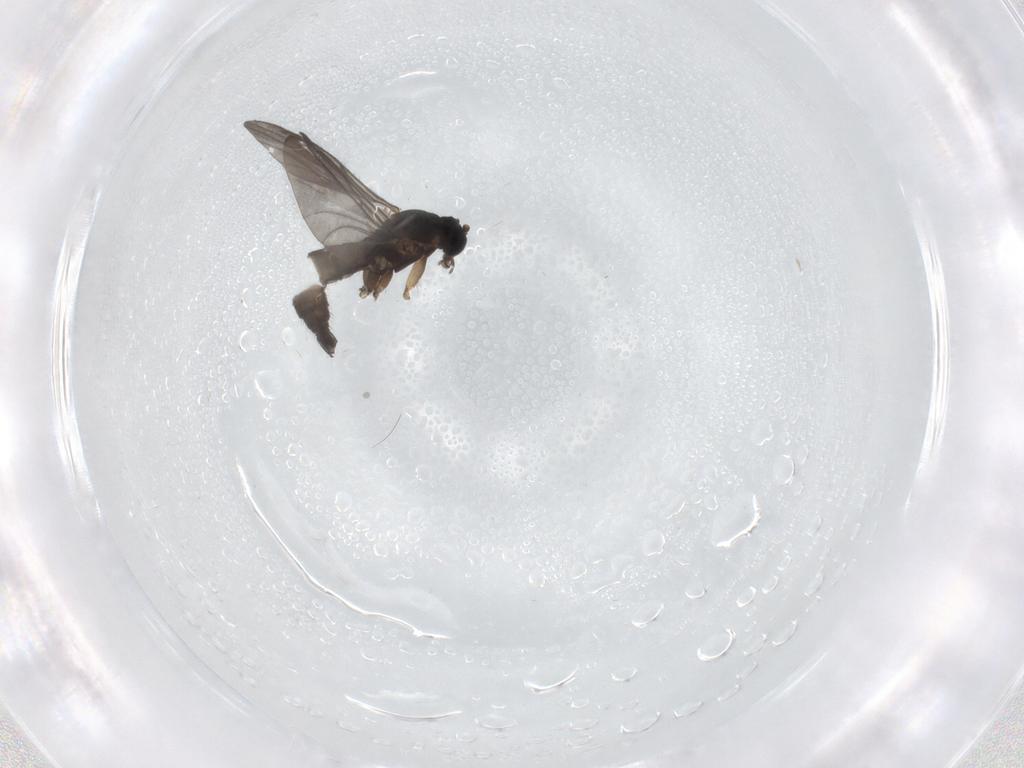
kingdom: Animalia
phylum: Arthropoda
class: Insecta
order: Diptera
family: Sciaridae
